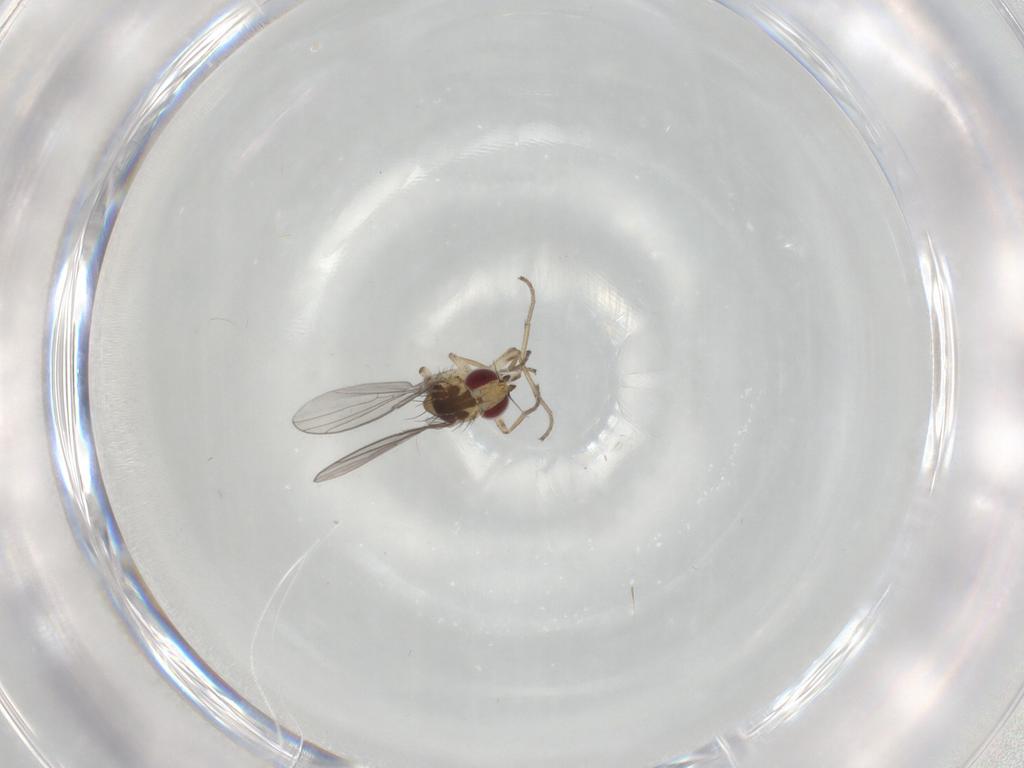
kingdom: Animalia
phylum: Arthropoda
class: Insecta
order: Diptera
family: Agromyzidae
